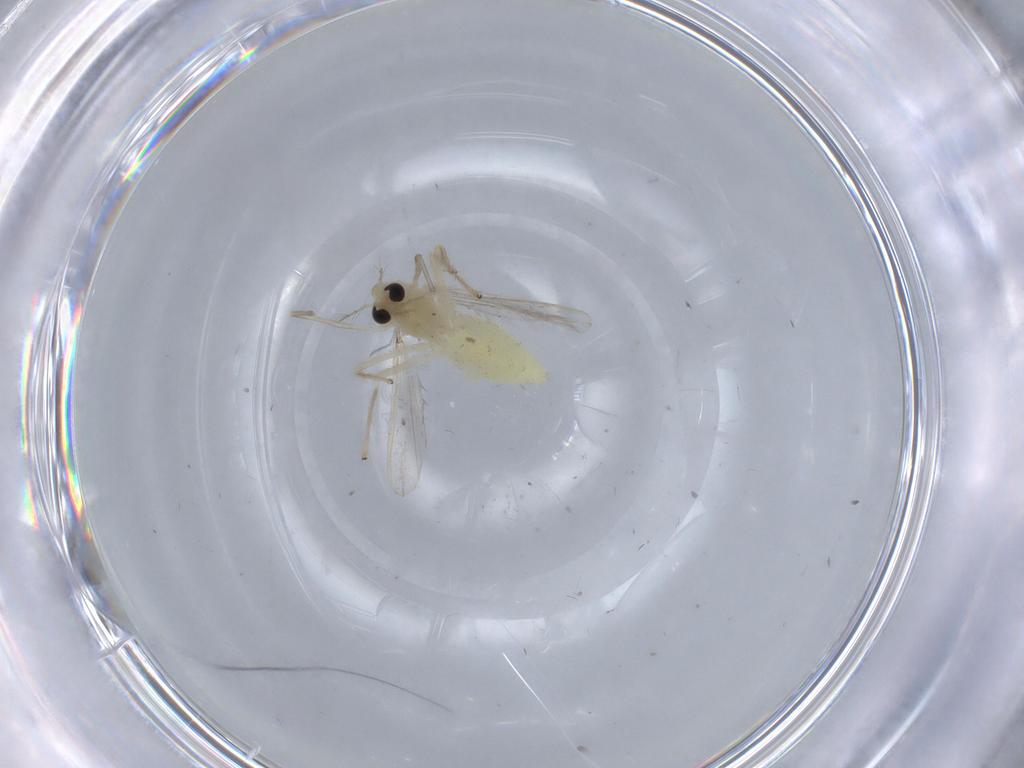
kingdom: Animalia
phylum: Arthropoda
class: Insecta
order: Diptera
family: Chironomidae
